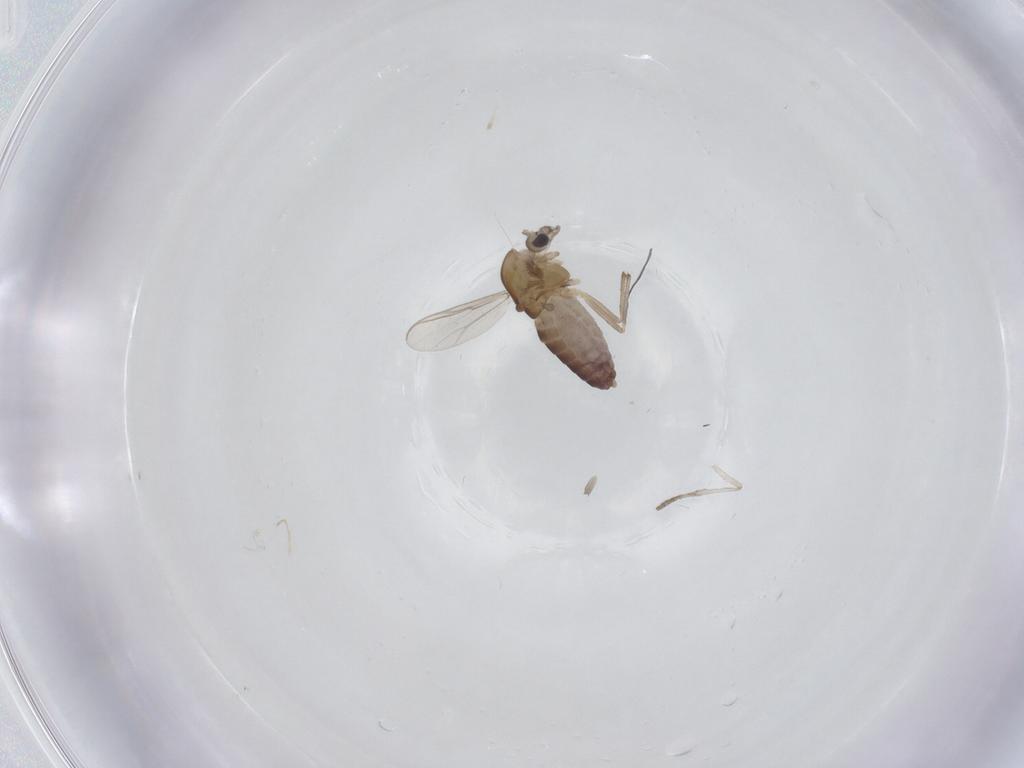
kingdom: Animalia
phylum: Arthropoda
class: Insecta
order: Diptera
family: Chironomidae
